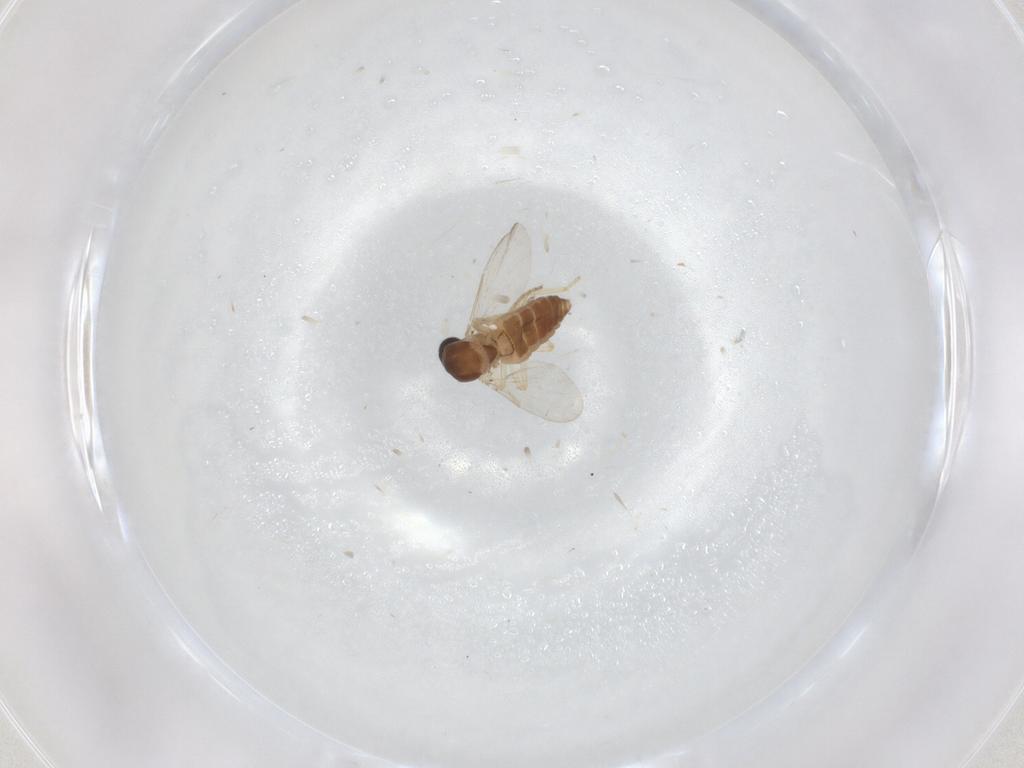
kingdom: Animalia
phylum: Arthropoda
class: Insecta
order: Diptera
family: Ceratopogonidae
